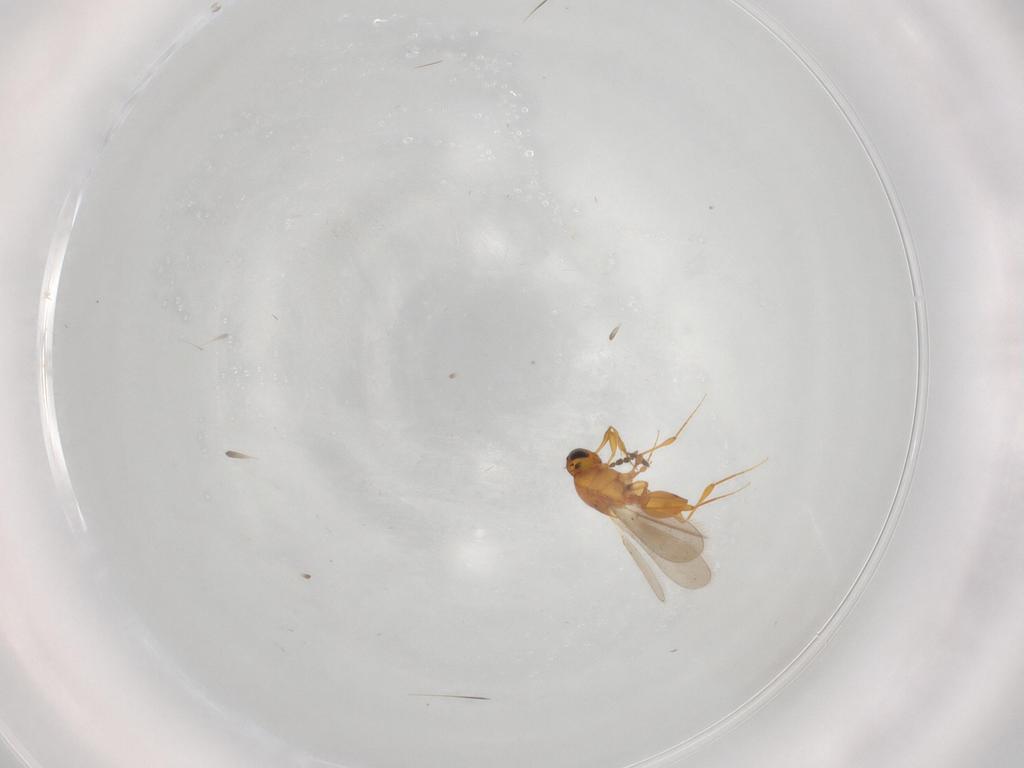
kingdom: Animalia
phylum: Arthropoda
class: Insecta
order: Hymenoptera
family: Platygastridae
